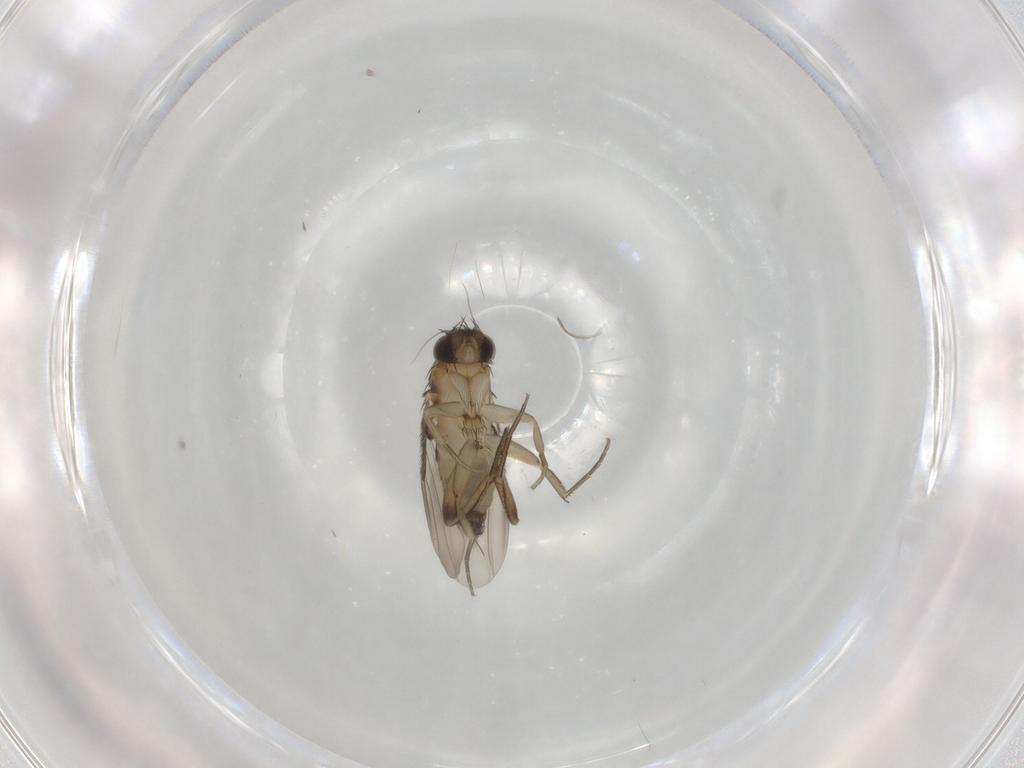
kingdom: Animalia
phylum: Arthropoda
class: Insecta
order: Diptera
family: Phoridae
